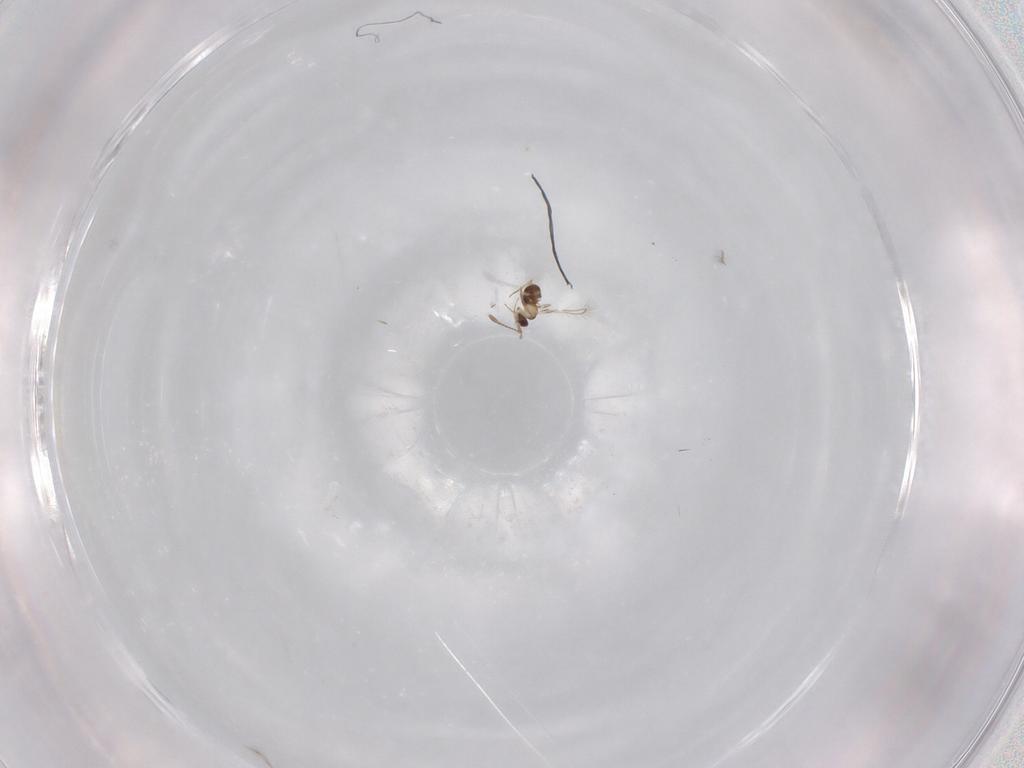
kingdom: Animalia
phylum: Arthropoda
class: Insecta
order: Hymenoptera
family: Mymaridae
